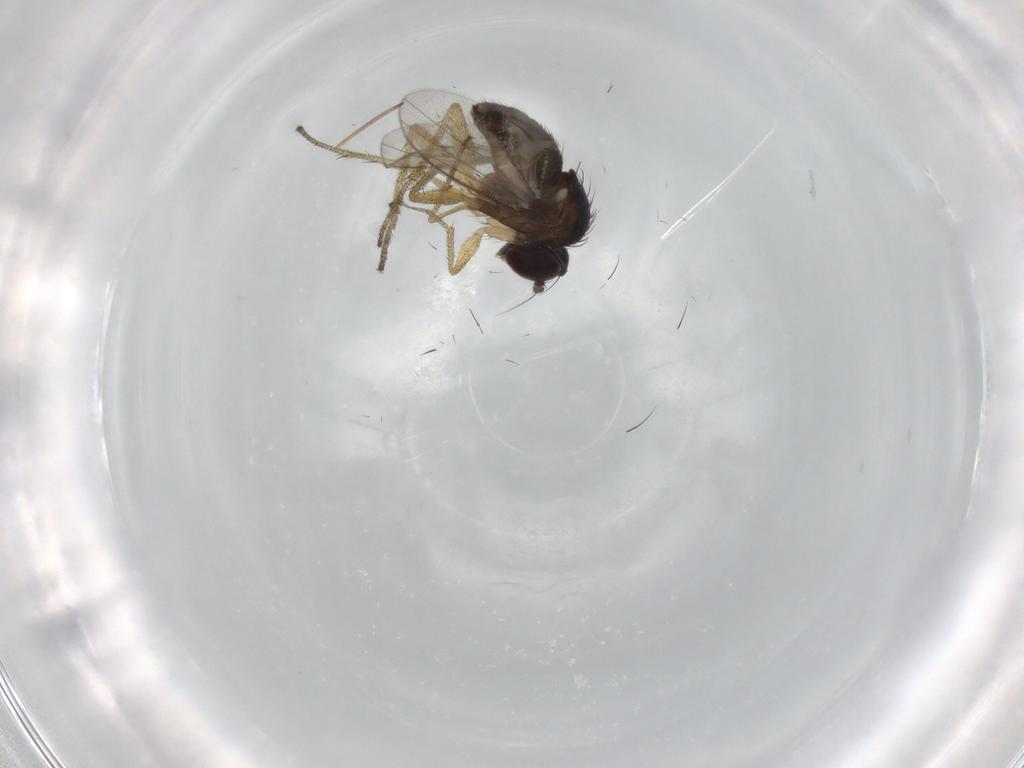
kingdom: Animalia
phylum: Arthropoda
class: Insecta
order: Diptera
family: Dolichopodidae
